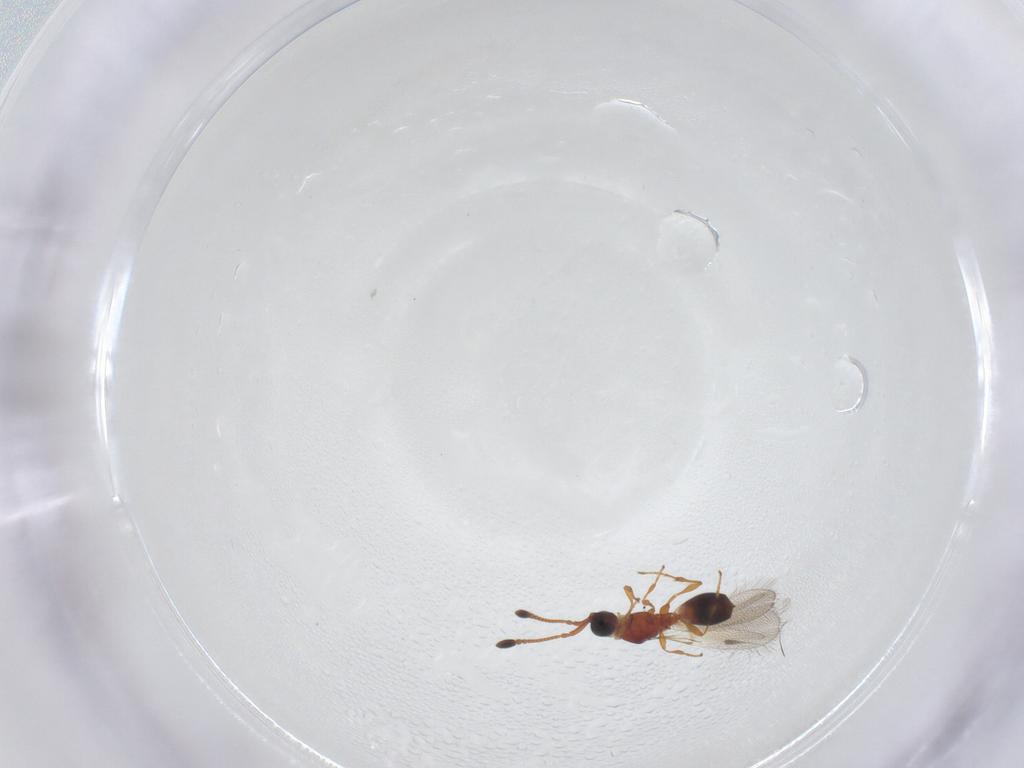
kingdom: Animalia
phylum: Arthropoda
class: Insecta
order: Hymenoptera
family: Diapriidae
